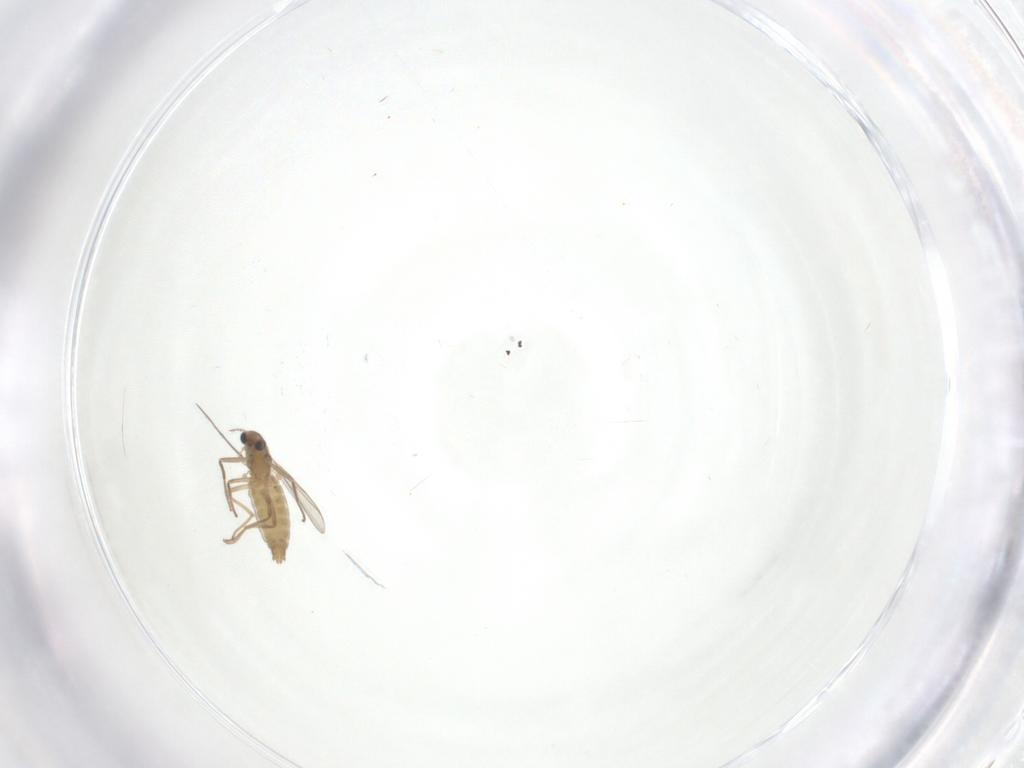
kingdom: Animalia
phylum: Arthropoda
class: Insecta
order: Diptera
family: Chironomidae
